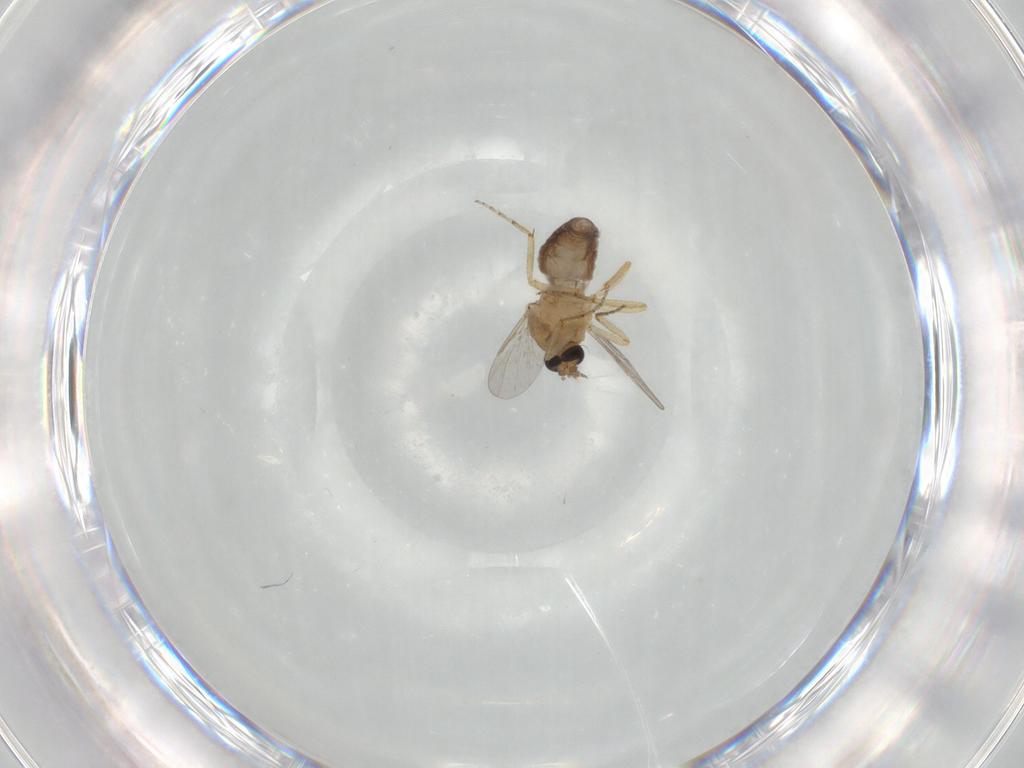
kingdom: Animalia
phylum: Arthropoda
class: Insecta
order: Diptera
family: Ceratopogonidae
